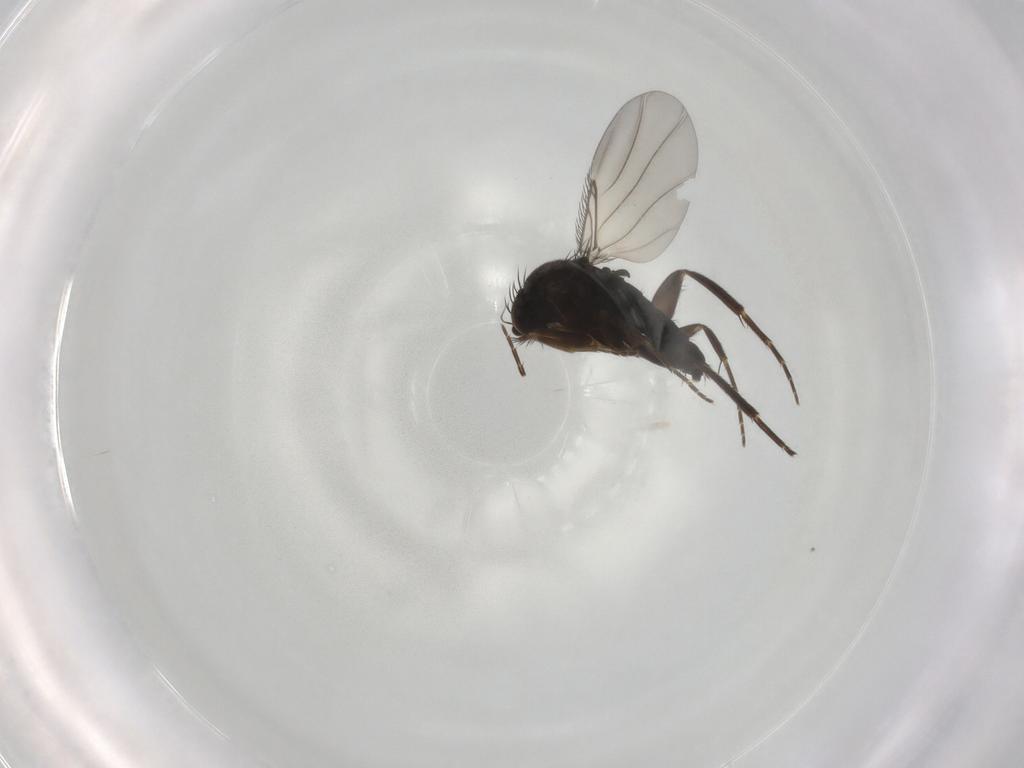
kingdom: Animalia
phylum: Arthropoda
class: Insecta
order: Diptera
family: Phoridae
